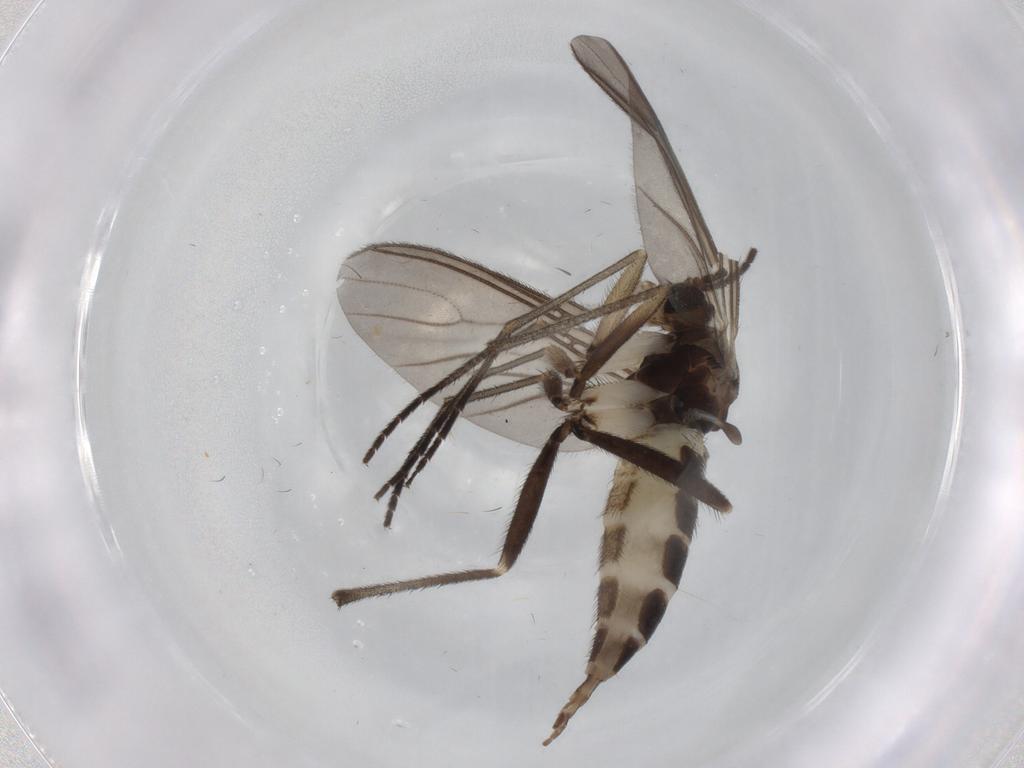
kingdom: Animalia
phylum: Arthropoda
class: Insecta
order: Diptera
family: Sciaridae
